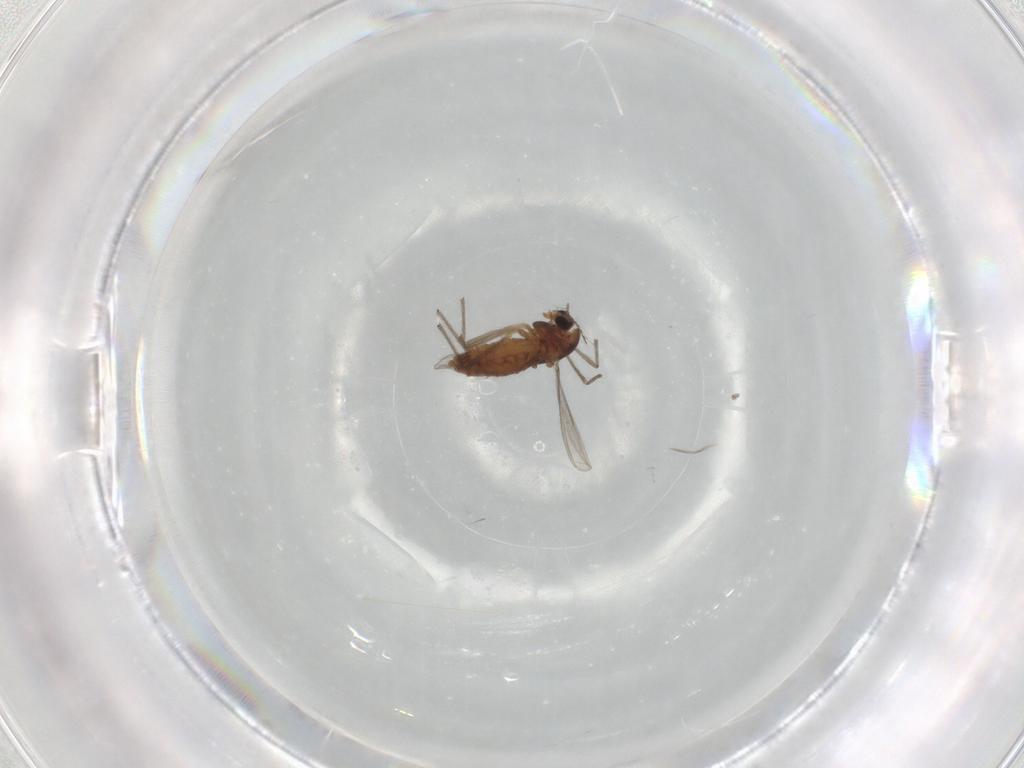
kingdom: Animalia
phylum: Arthropoda
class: Insecta
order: Diptera
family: Chironomidae
